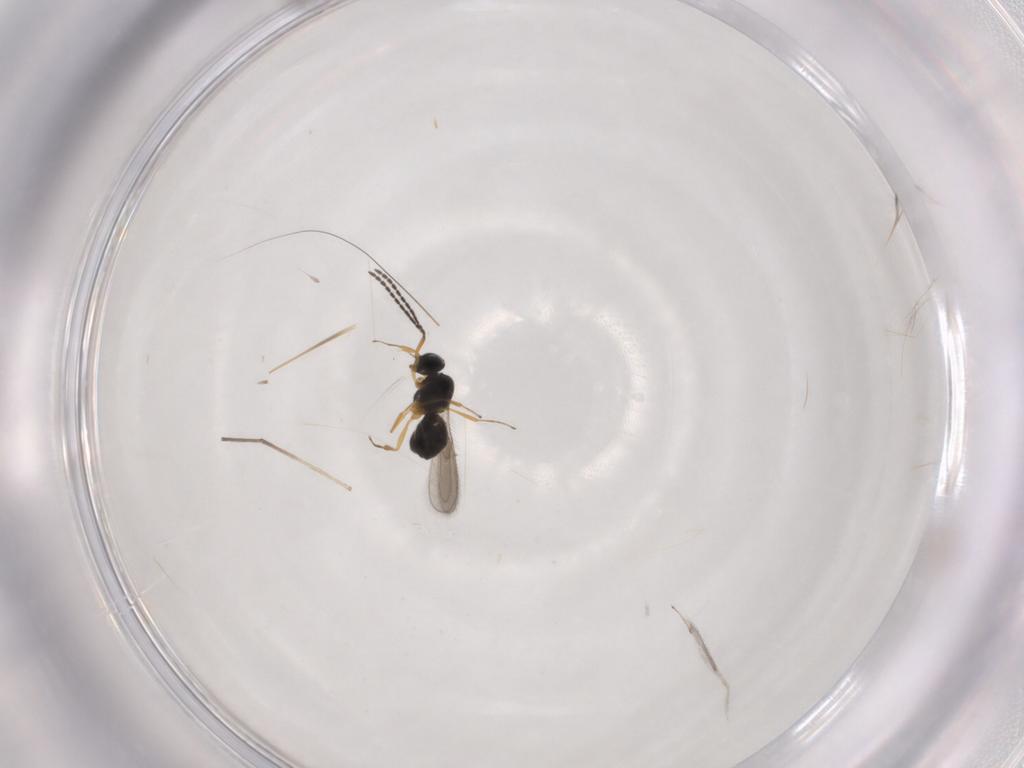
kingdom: Animalia
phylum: Arthropoda
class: Insecta
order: Hymenoptera
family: Scelionidae
